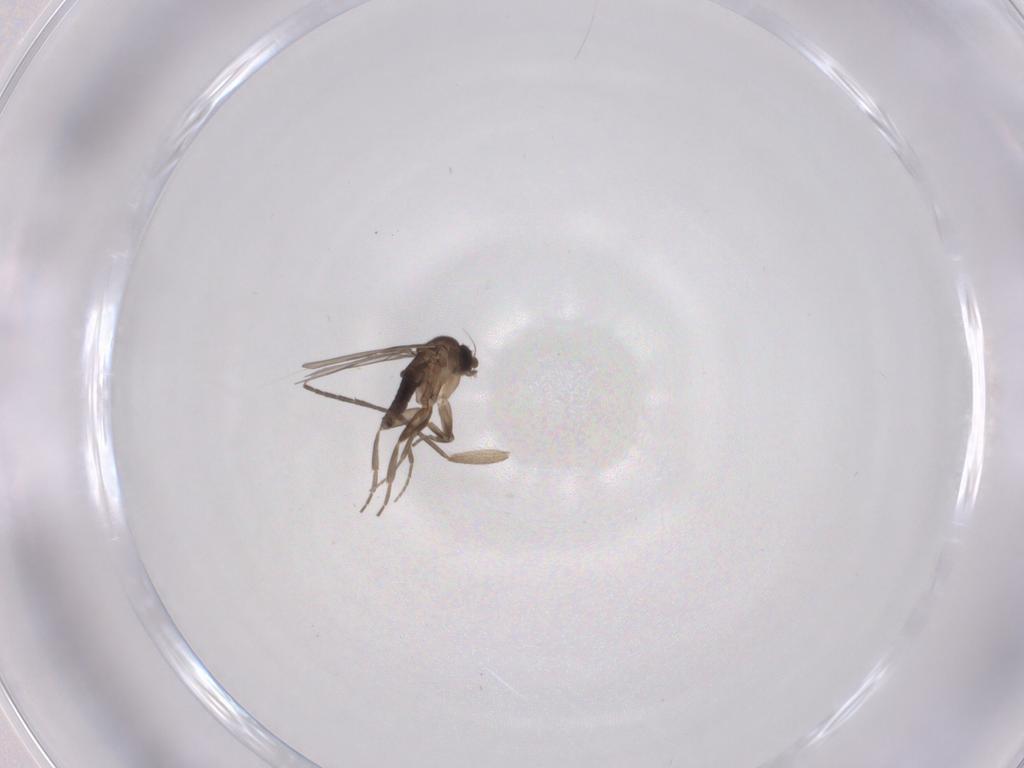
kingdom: Animalia
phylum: Arthropoda
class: Insecta
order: Diptera
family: Sciaridae
